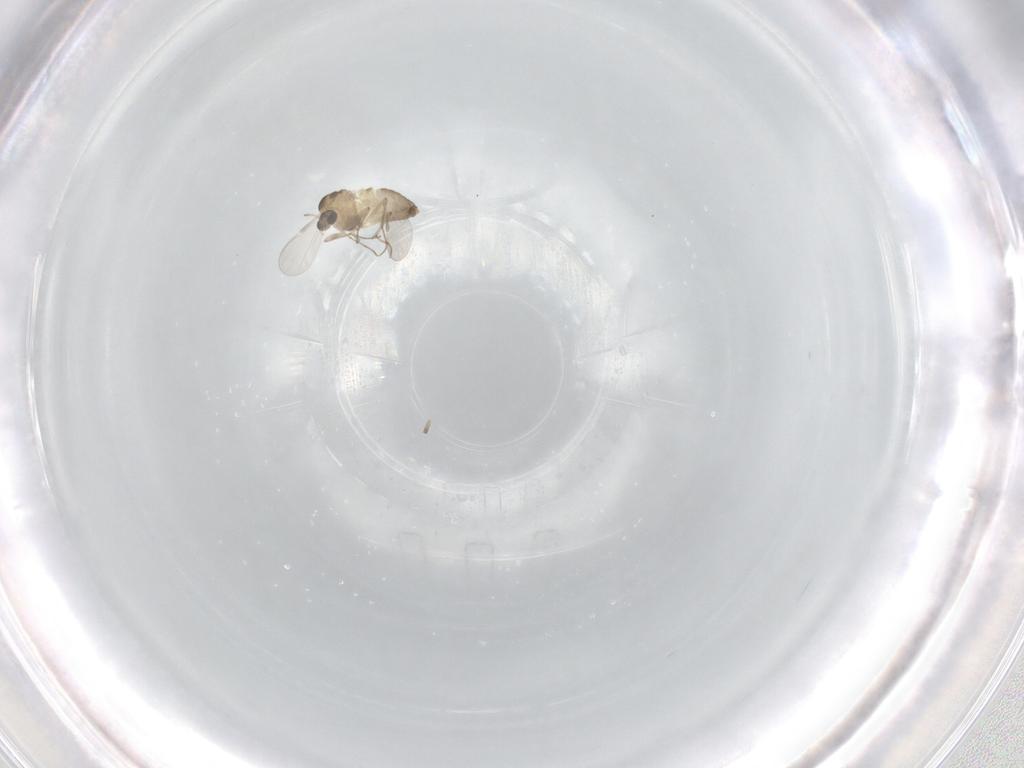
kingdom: Animalia
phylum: Arthropoda
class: Insecta
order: Diptera
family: Chironomidae
